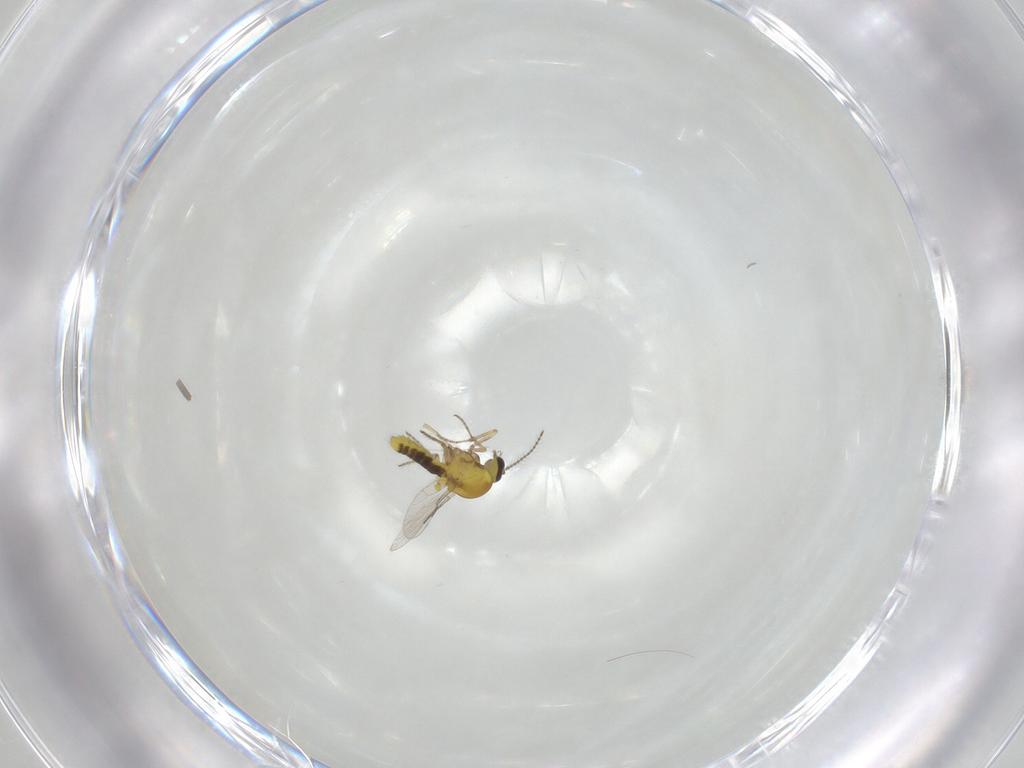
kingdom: Animalia
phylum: Arthropoda
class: Insecta
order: Diptera
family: Ceratopogonidae
